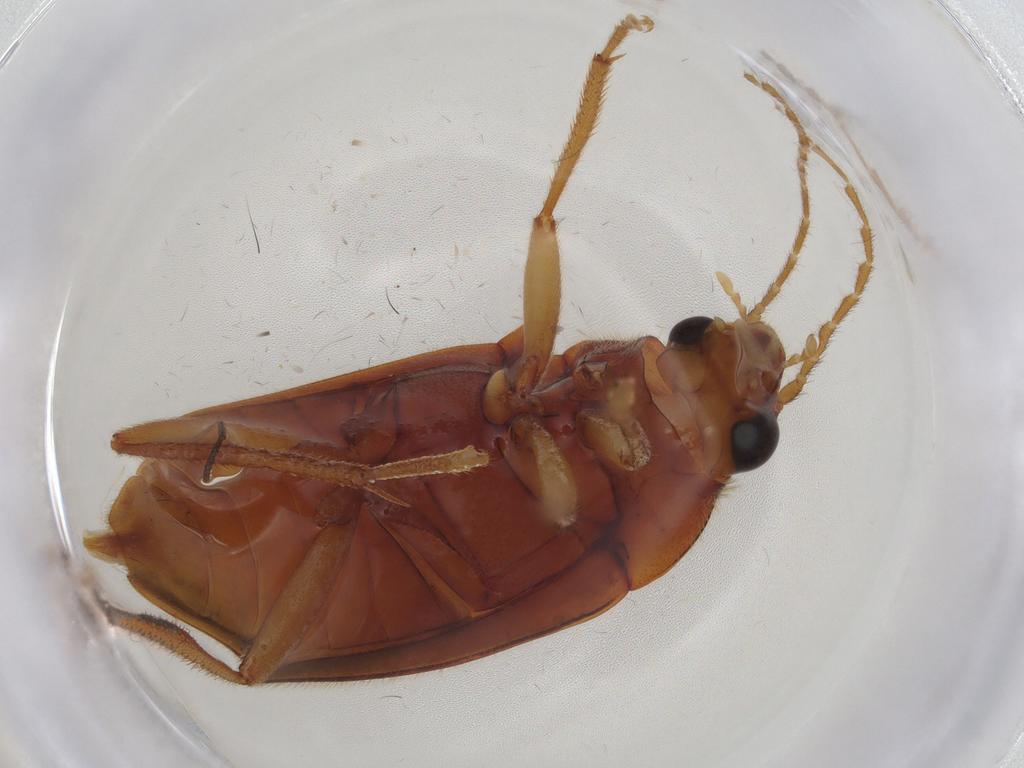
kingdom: Animalia
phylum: Arthropoda
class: Insecta
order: Coleoptera
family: Ptilodactylidae
